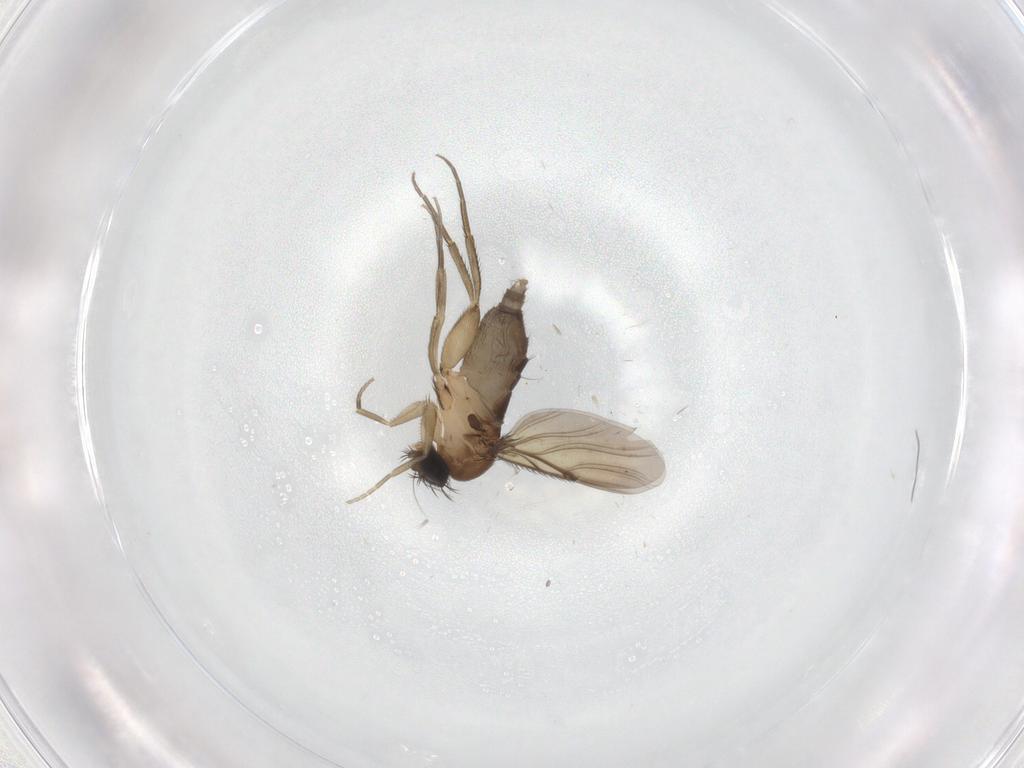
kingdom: Animalia
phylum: Arthropoda
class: Insecta
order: Diptera
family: Phoridae
